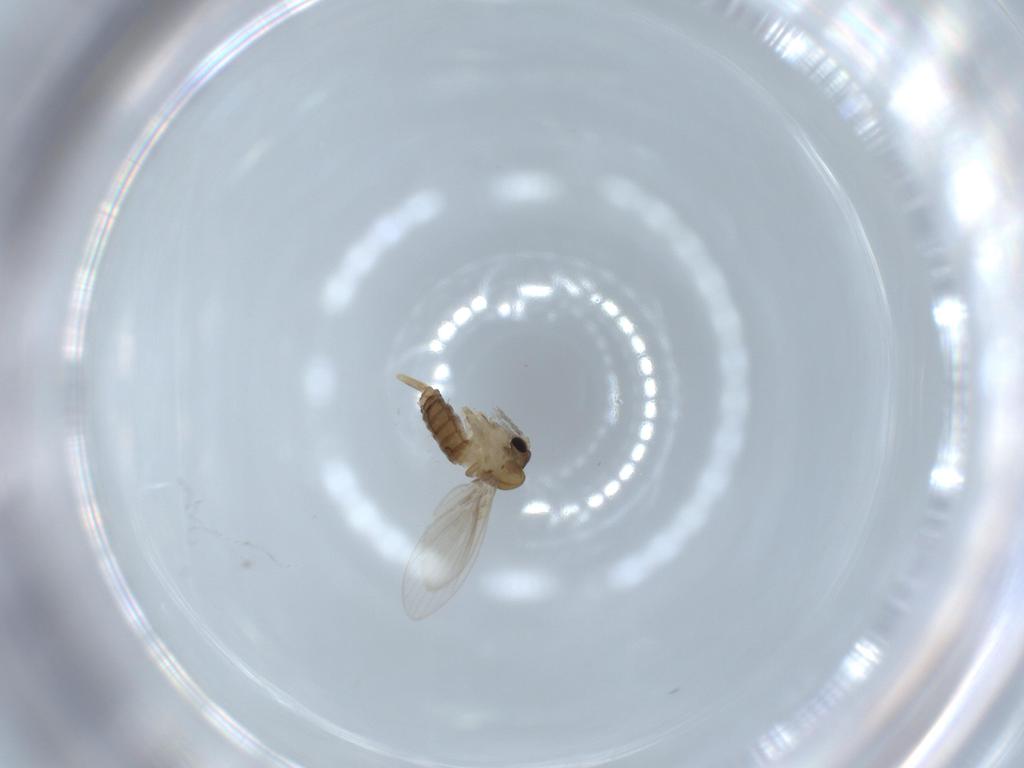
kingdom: Animalia
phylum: Arthropoda
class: Insecta
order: Diptera
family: Psychodidae
